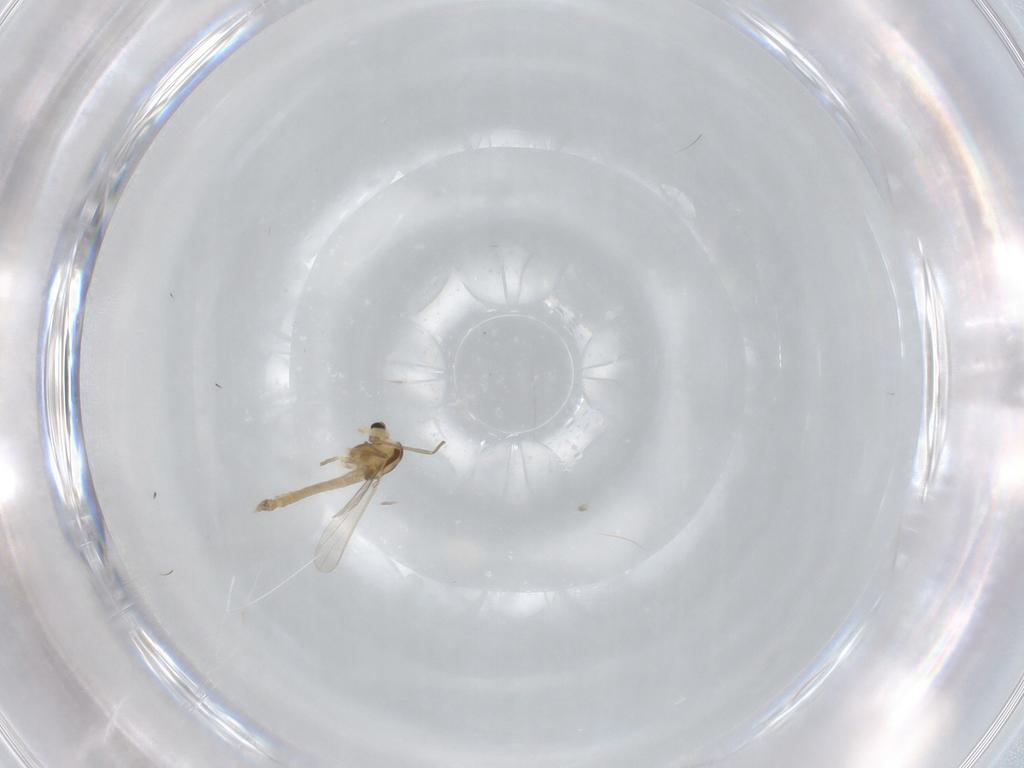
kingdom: Animalia
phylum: Arthropoda
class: Insecta
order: Diptera
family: Chironomidae
